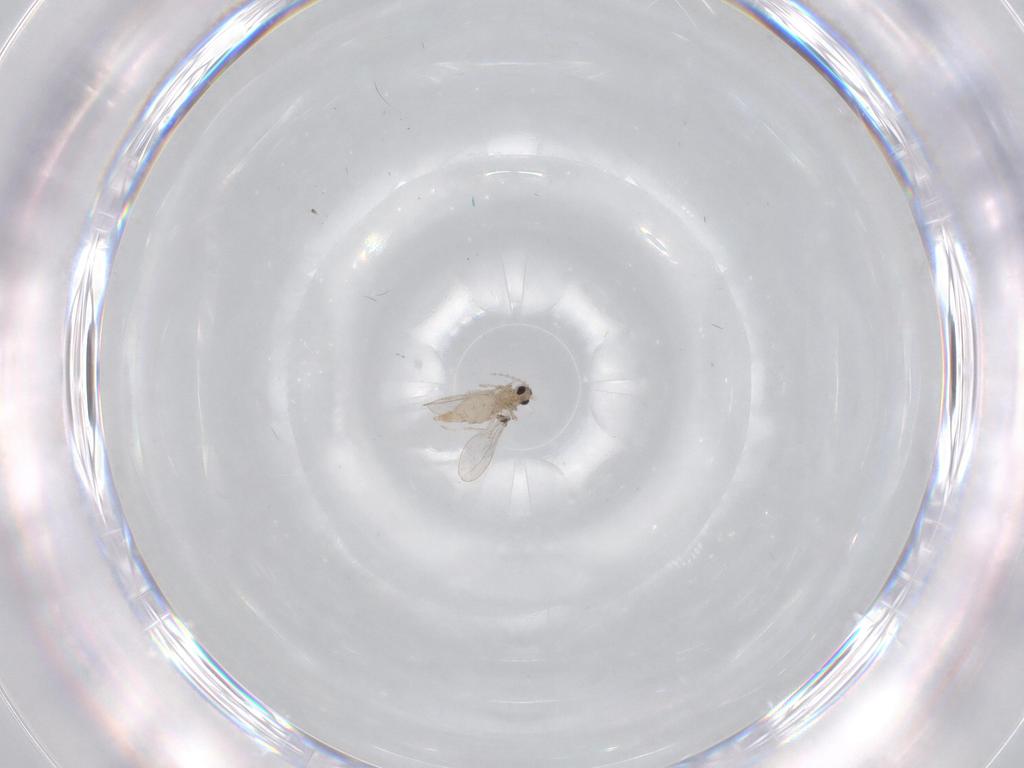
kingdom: Animalia
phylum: Arthropoda
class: Insecta
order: Diptera
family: Cecidomyiidae
